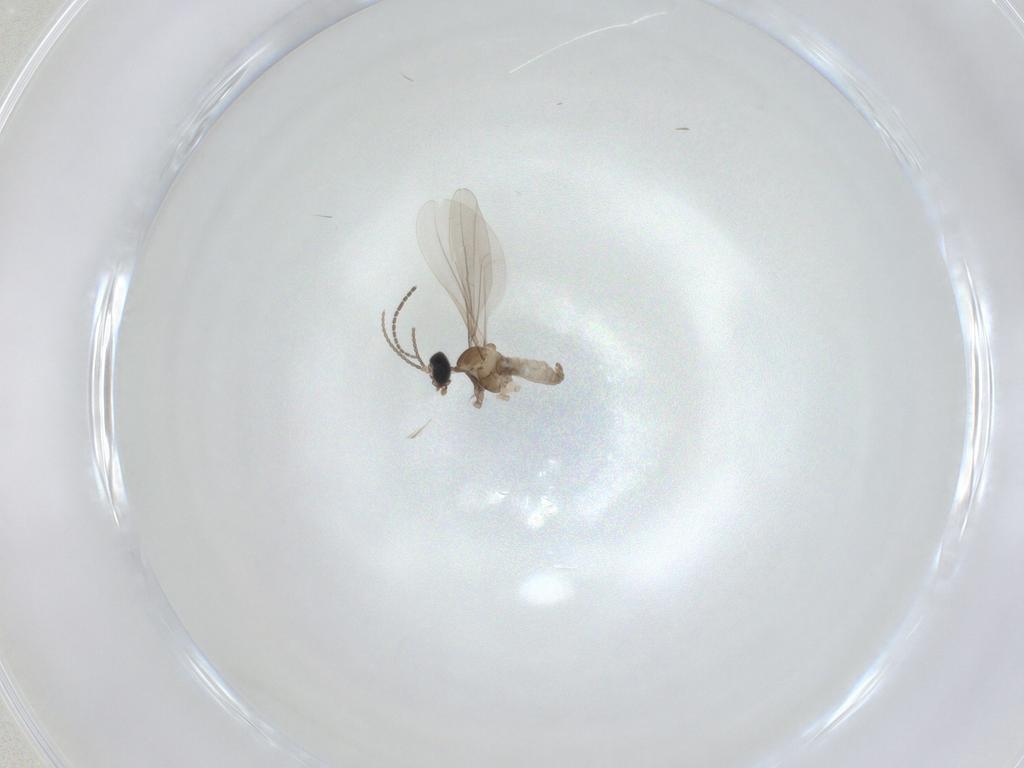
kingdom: Animalia
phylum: Arthropoda
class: Insecta
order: Diptera
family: Cecidomyiidae
